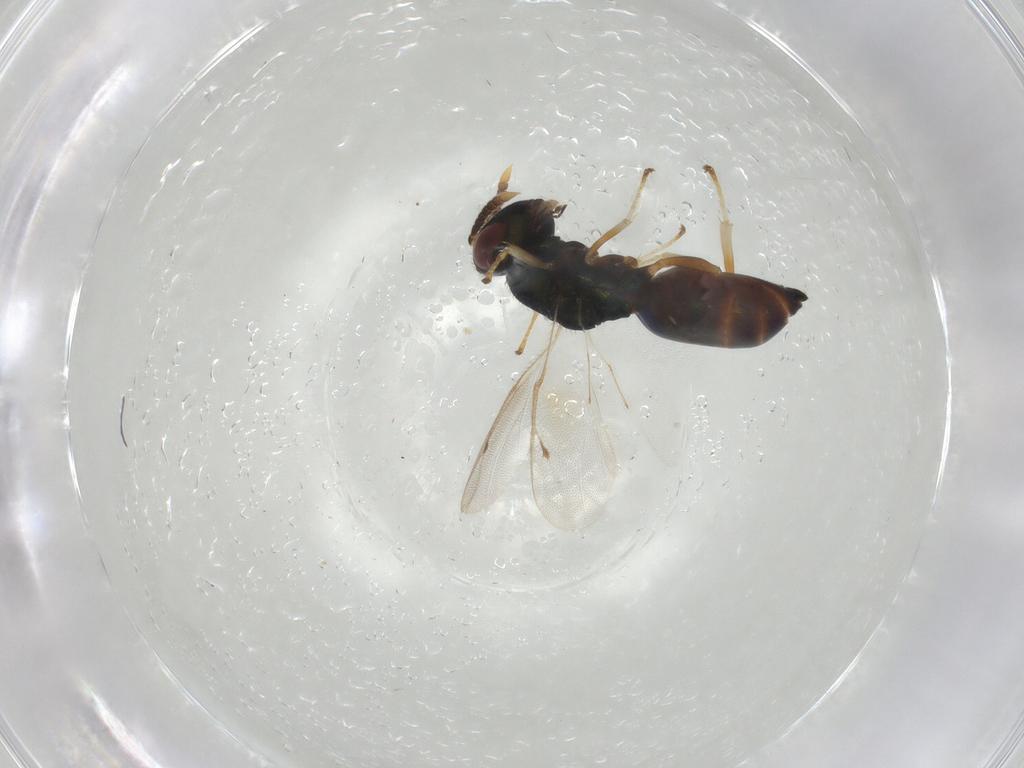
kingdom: Animalia
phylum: Arthropoda
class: Insecta
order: Hymenoptera
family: Pteromalidae
